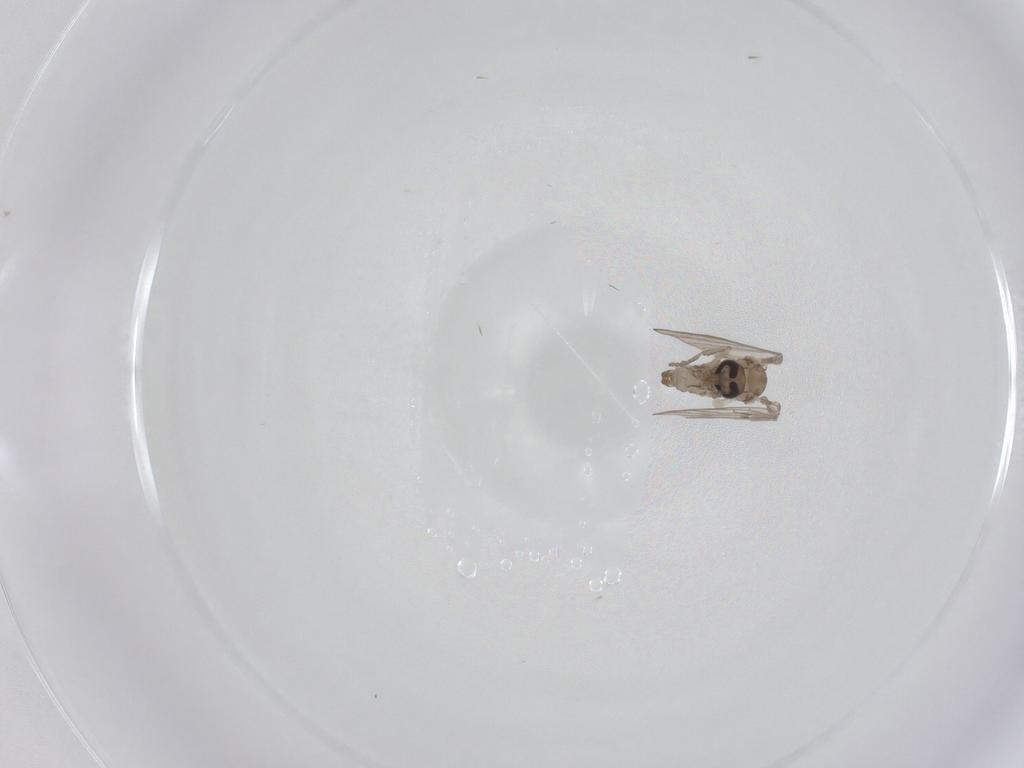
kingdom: Animalia
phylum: Arthropoda
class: Insecta
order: Diptera
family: Psychodidae
